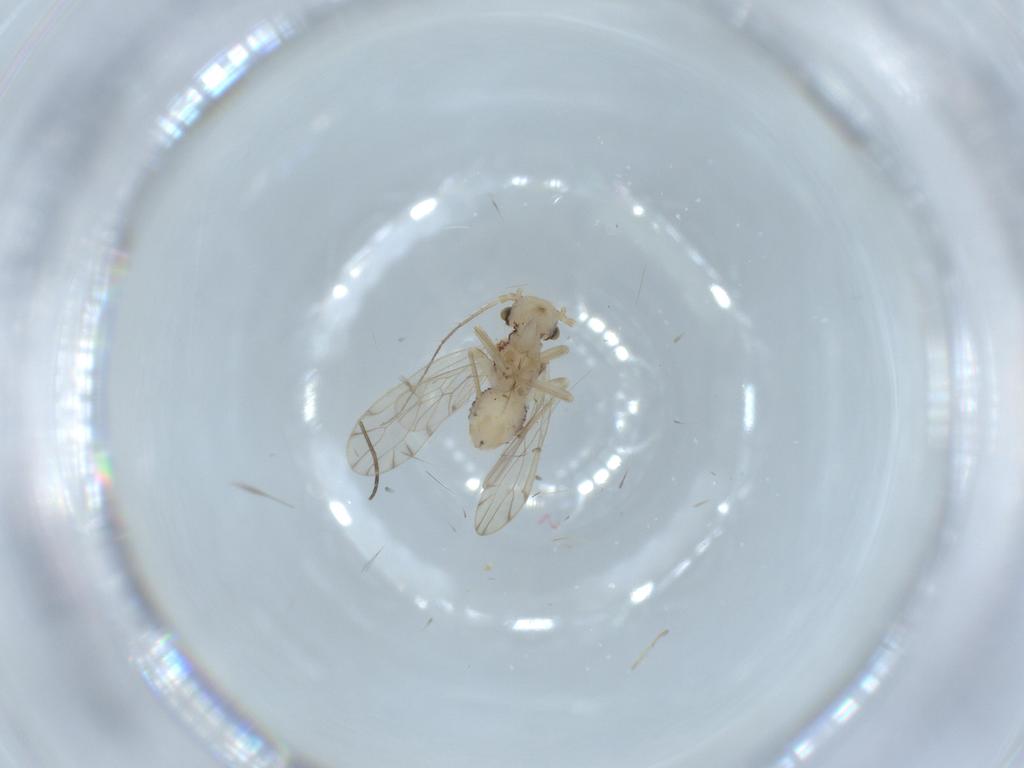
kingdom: Animalia
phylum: Arthropoda
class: Insecta
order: Psocodea
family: Ectopsocidae
